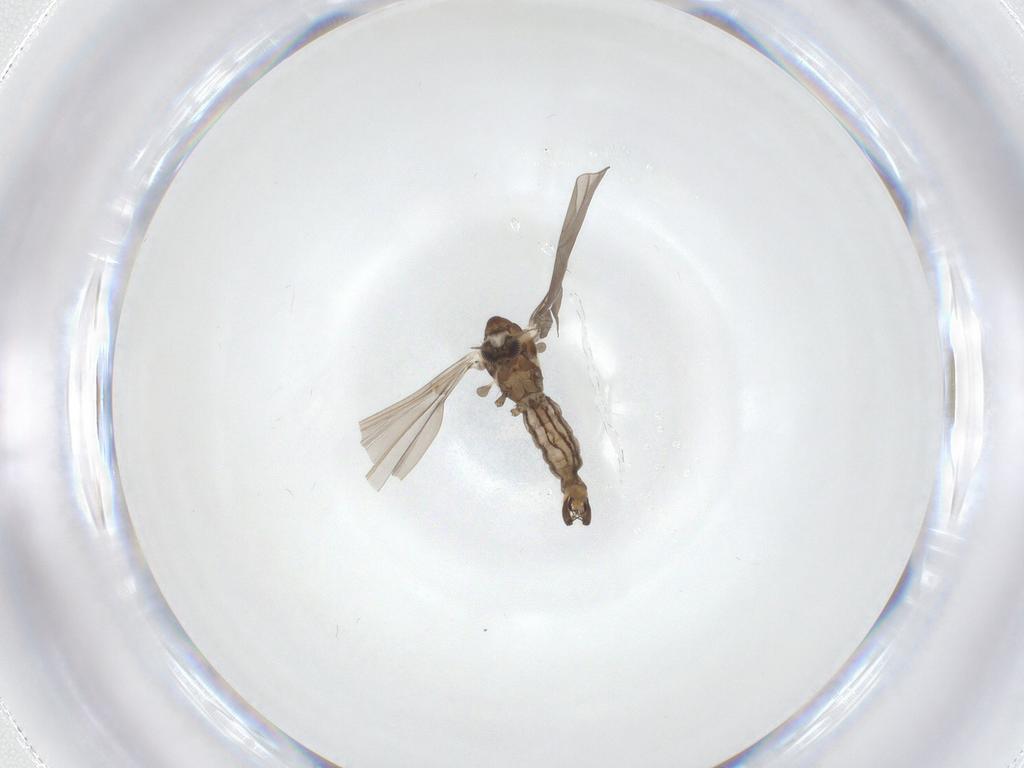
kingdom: Animalia
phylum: Arthropoda
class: Insecta
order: Diptera
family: Limoniidae
